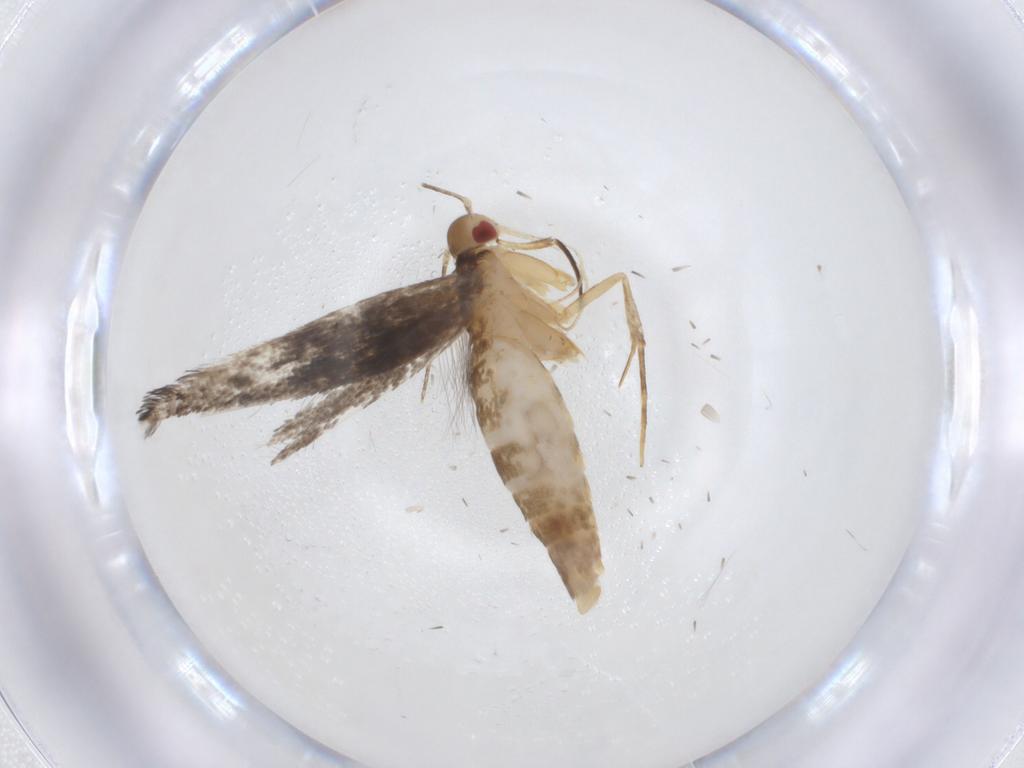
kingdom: Animalia
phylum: Arthropoda
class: Insecta
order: Lepidoptera
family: Cosmopterigidae
